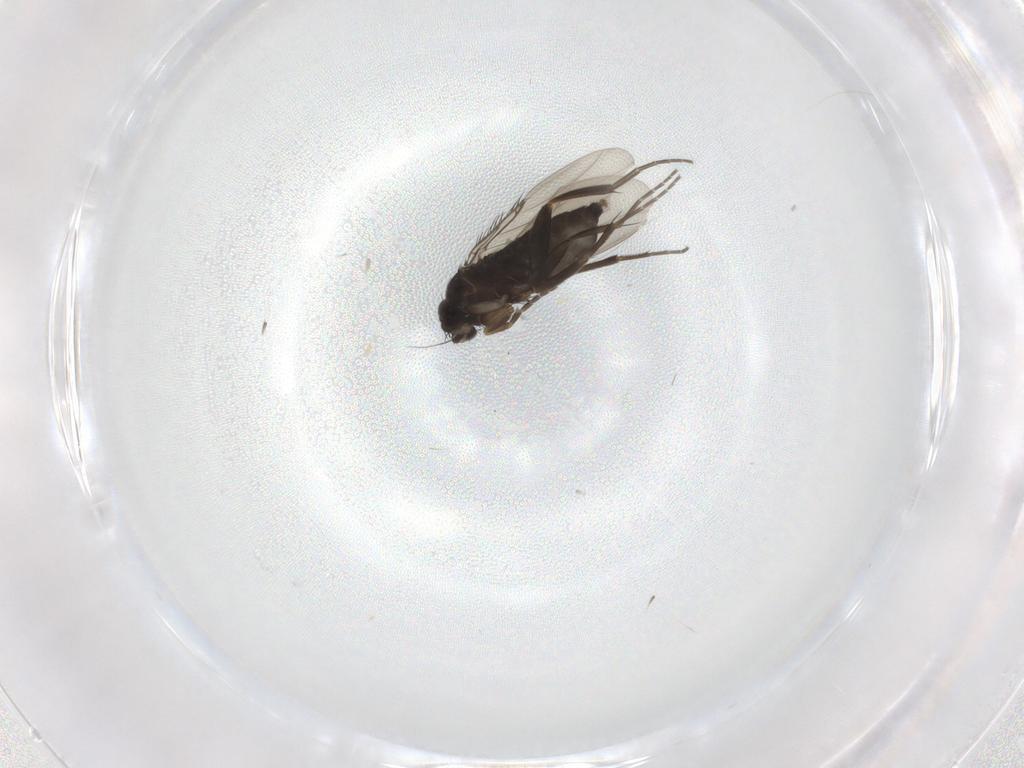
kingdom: Animalia
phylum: Arthropoda
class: Insecta
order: Diptera
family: Phoridae
